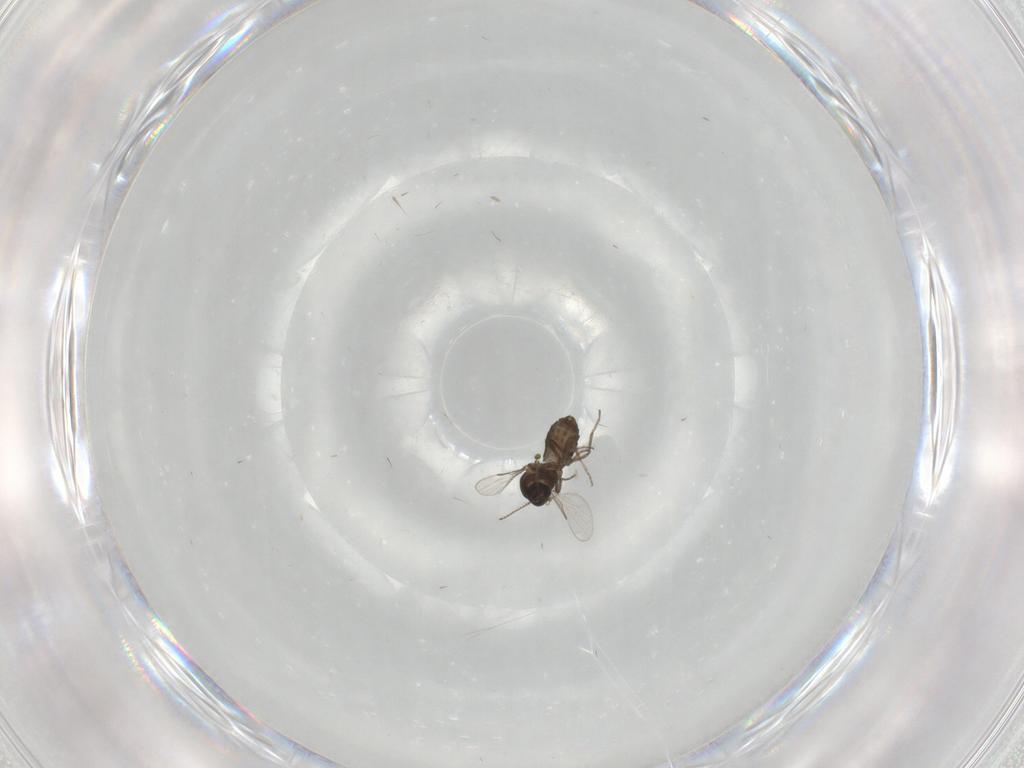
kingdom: Animalia
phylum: Arthropoda
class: Insecta
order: Diptera
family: Ceratopogonidae
